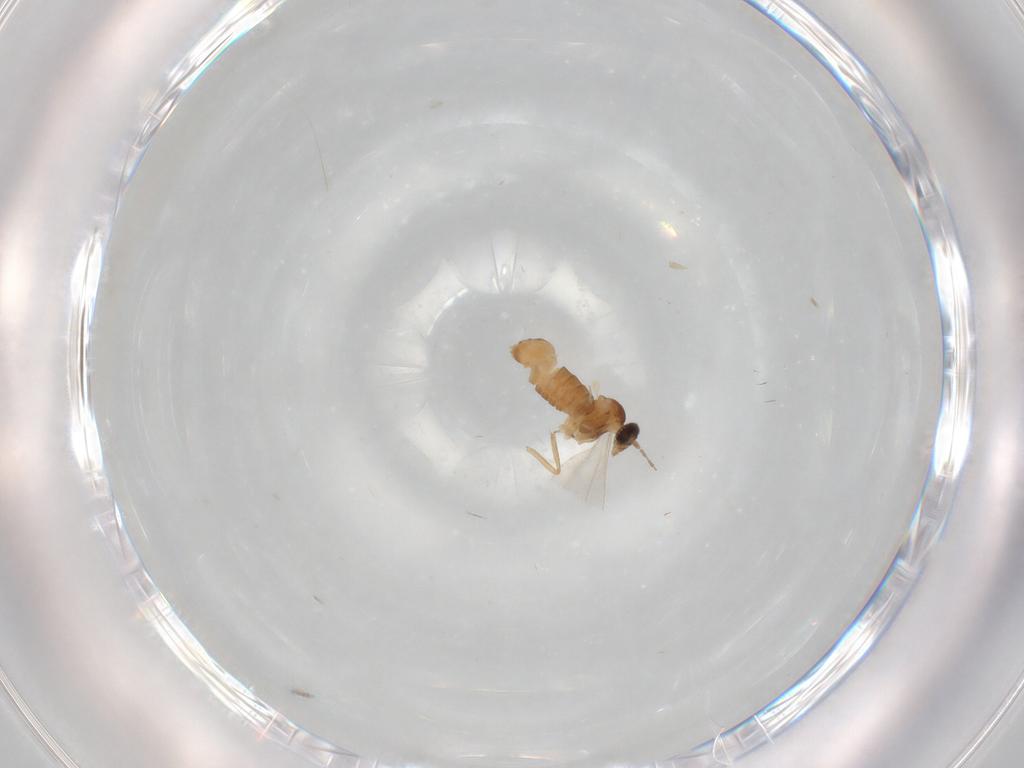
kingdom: Animalia
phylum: Arthropoda
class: Insecta
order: Diptera
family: Cecidomyiidae
